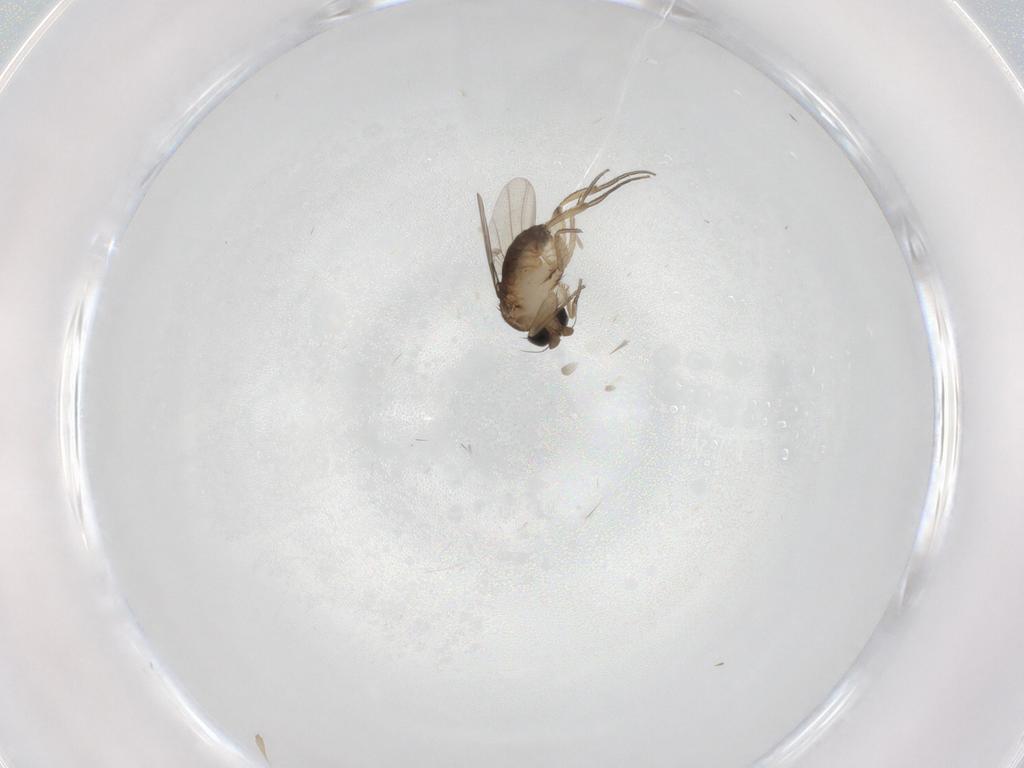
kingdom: Animalia
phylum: Arthropoda
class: Insecta
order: Diptera
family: Phoridae
